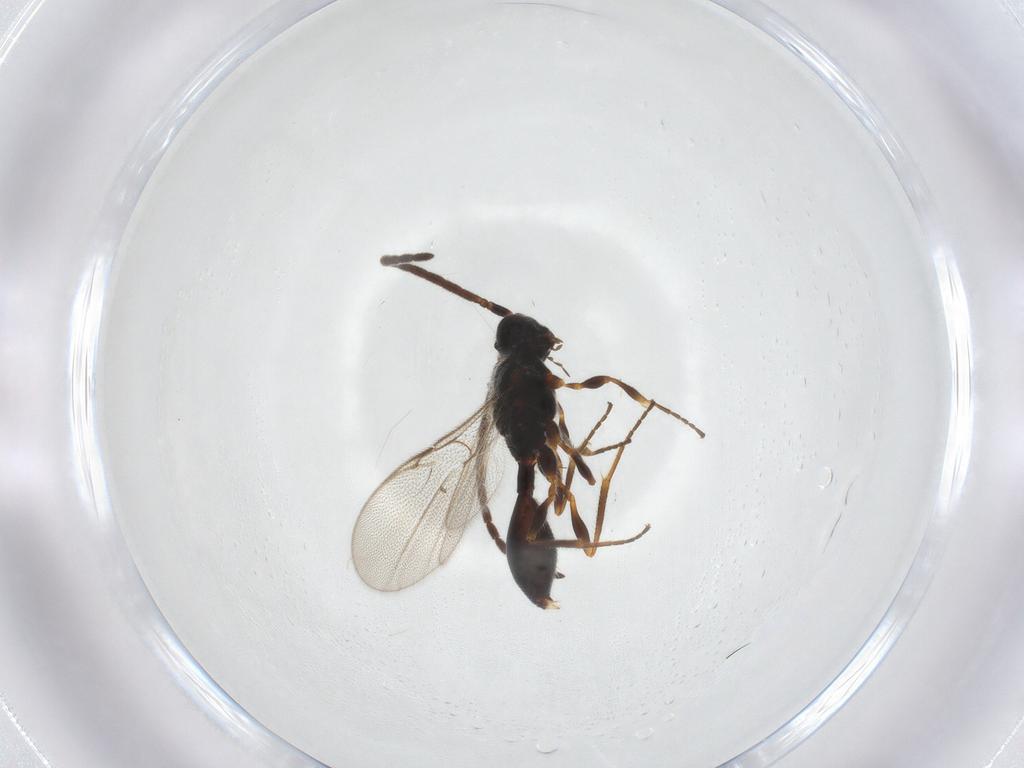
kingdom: Animalia
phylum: Arthropoda
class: Insecta
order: Hymenoptera
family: Diapriidae
